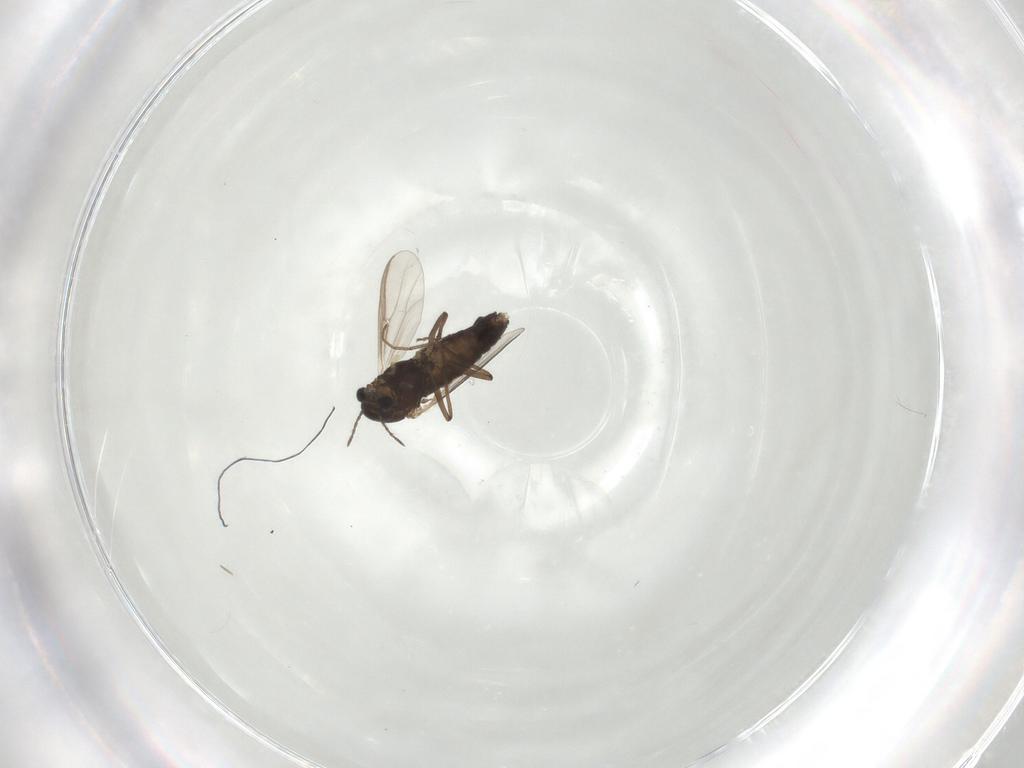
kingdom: Animalia
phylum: Arthropoda
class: Insecta
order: Diptera
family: Chironomidae
